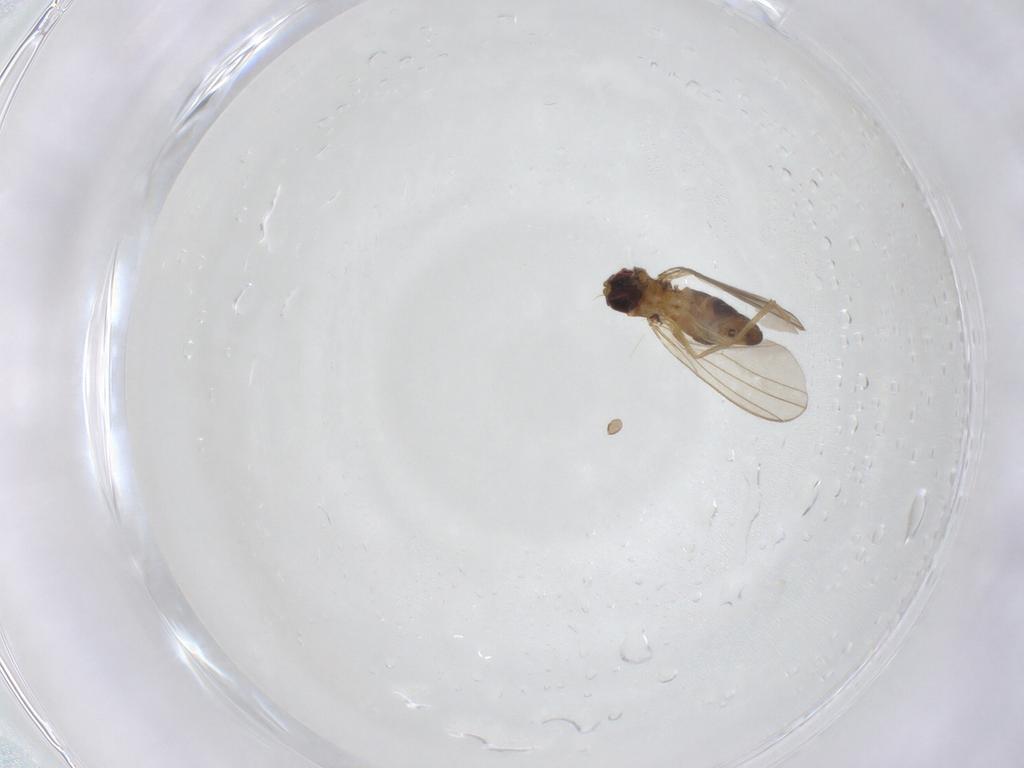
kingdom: Animalia
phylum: Arthropoda
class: Insecta
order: Diptera
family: Dolichopodidae
